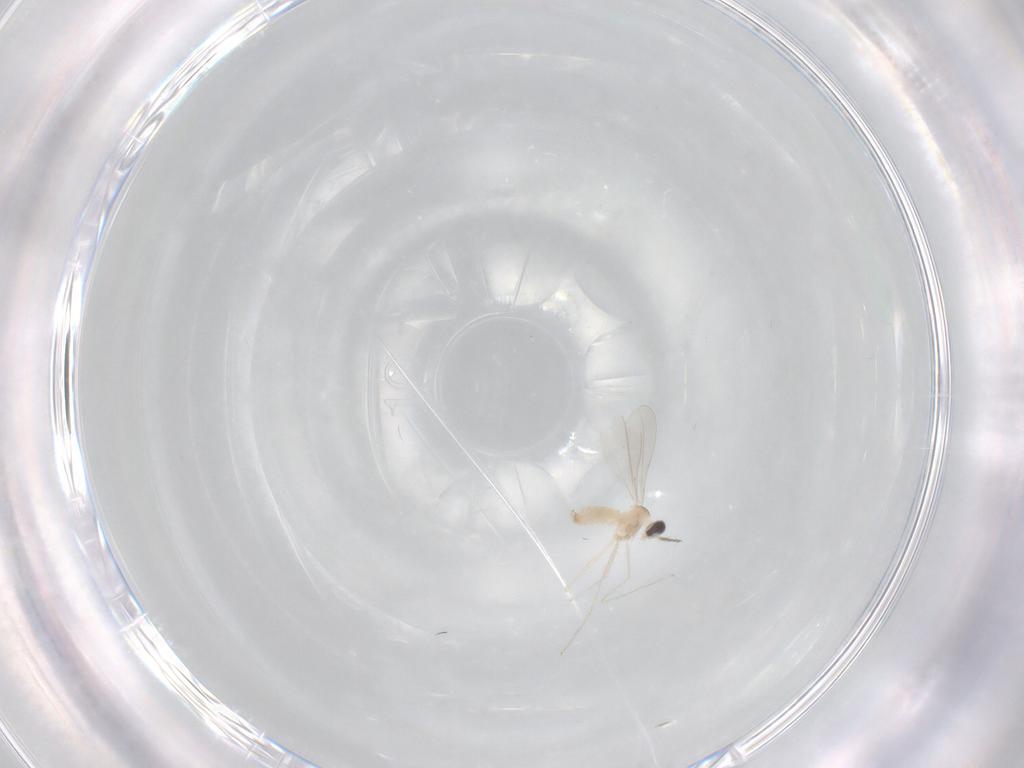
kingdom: Animalia
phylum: Arthropoda
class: Insecta
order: Diptera
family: Cecidomyiidae
